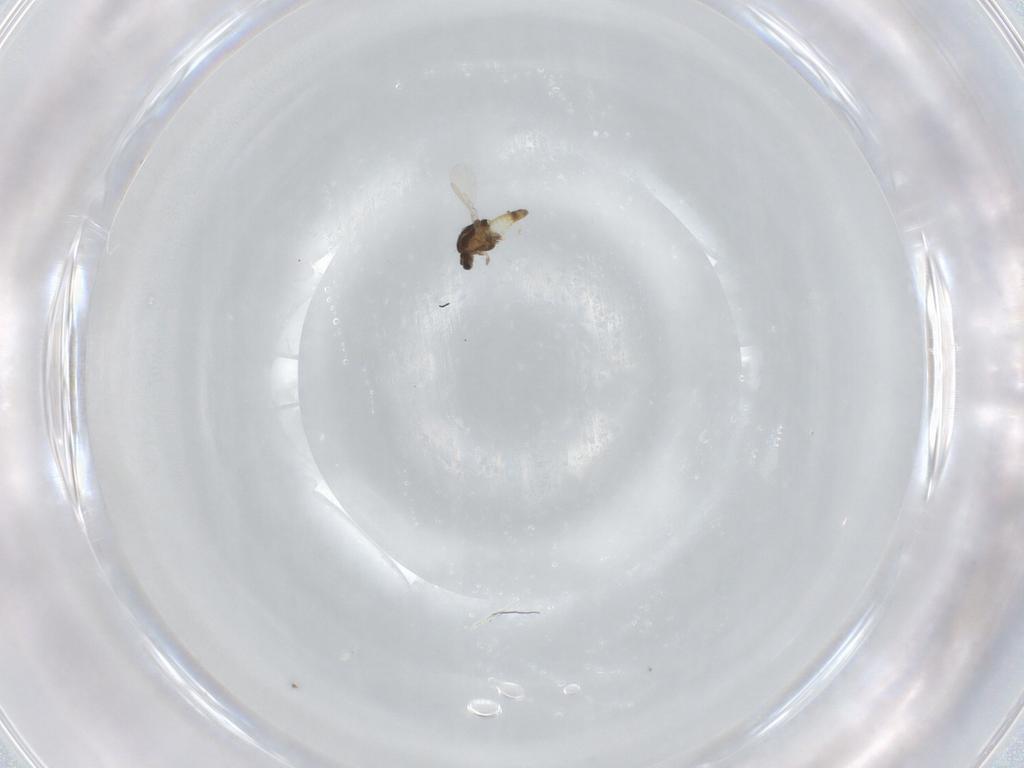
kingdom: Animalia
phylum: Arthropoda
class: Insecta
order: Diptera
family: Chironomidae
